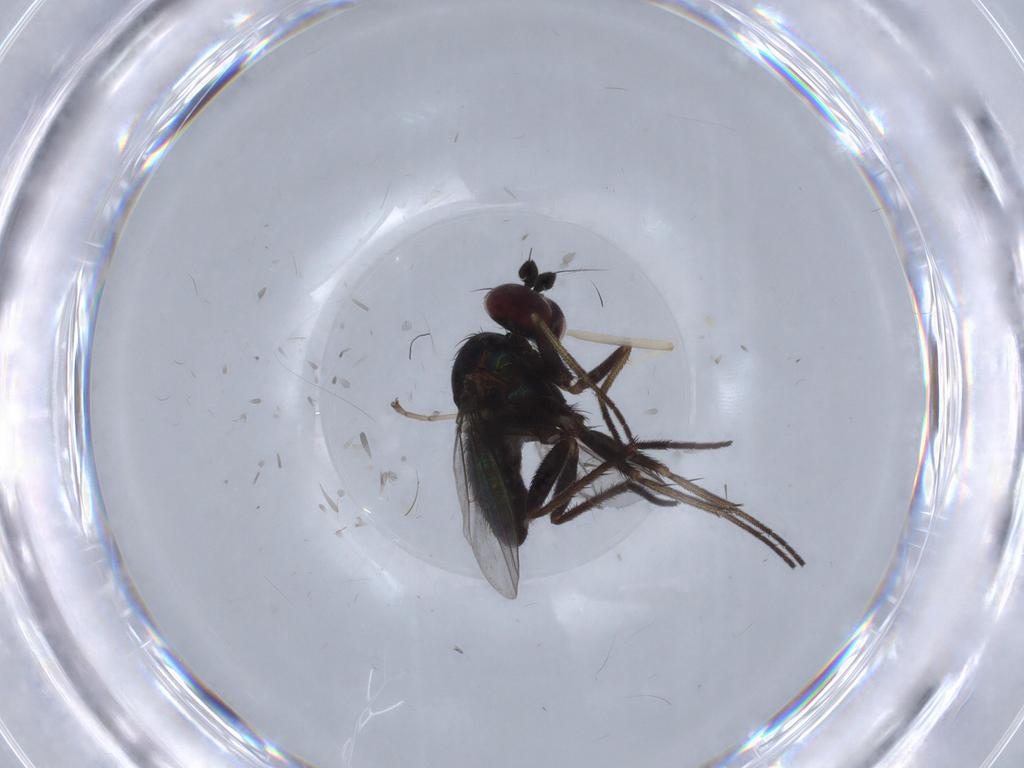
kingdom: Animalia
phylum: Arthropoda
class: Insecta
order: Diptera
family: Dolichopodidae
